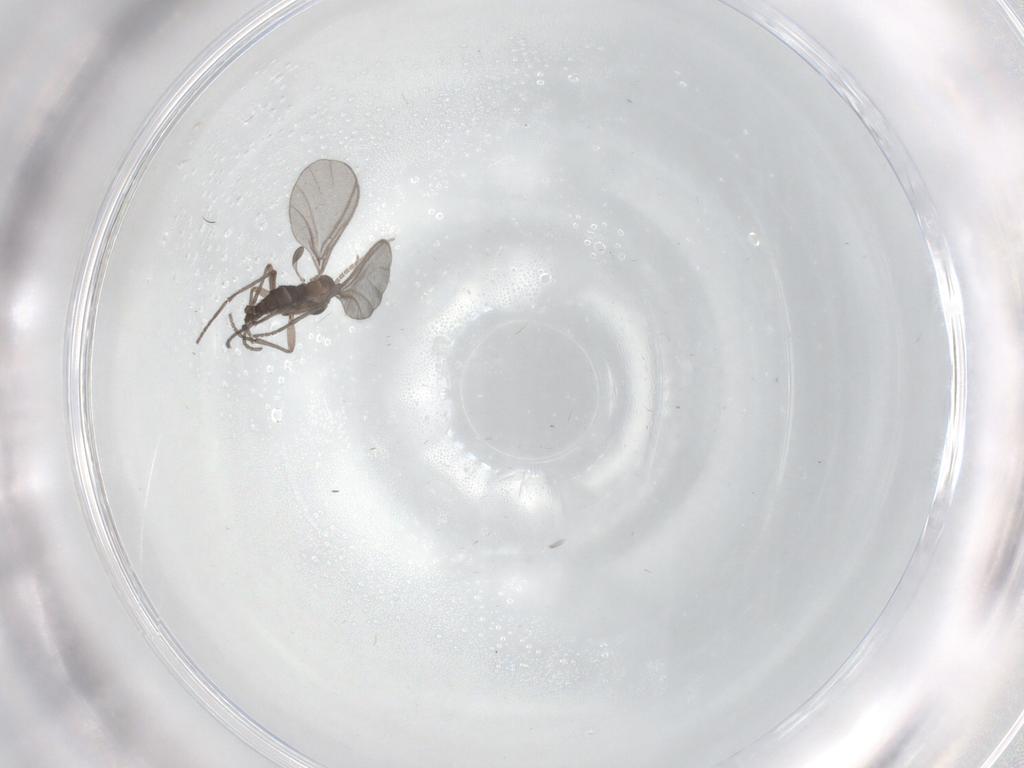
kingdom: Animalia
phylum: Arthropoda
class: Insecta
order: Diptera
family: Sciaridae
